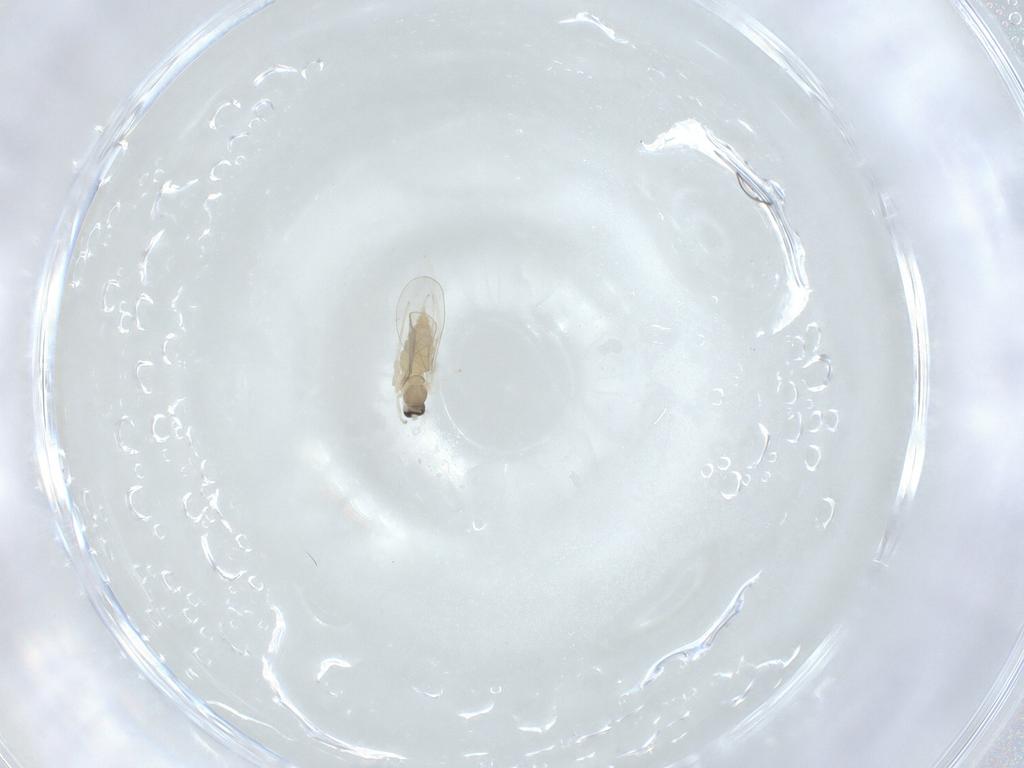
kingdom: Animalia
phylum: Arthropoda
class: Insecta
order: Diptera
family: Cecidomyiidae
